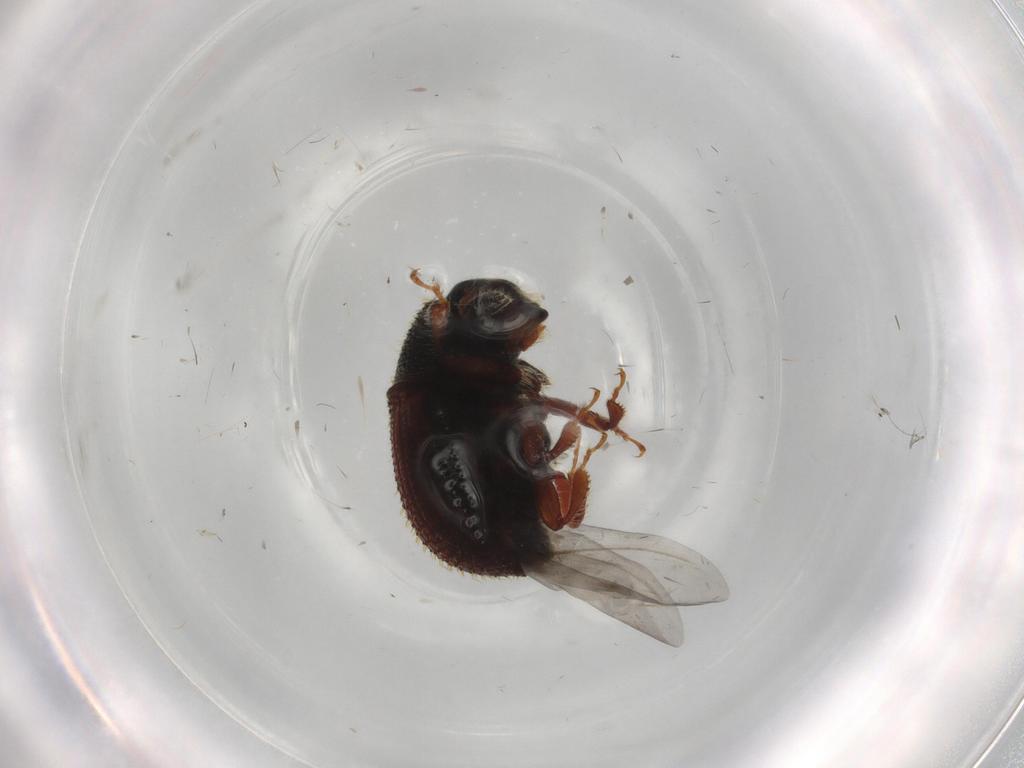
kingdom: Animalia
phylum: Arthropoda
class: Insecta
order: Coleoptera
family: Curculionidae
